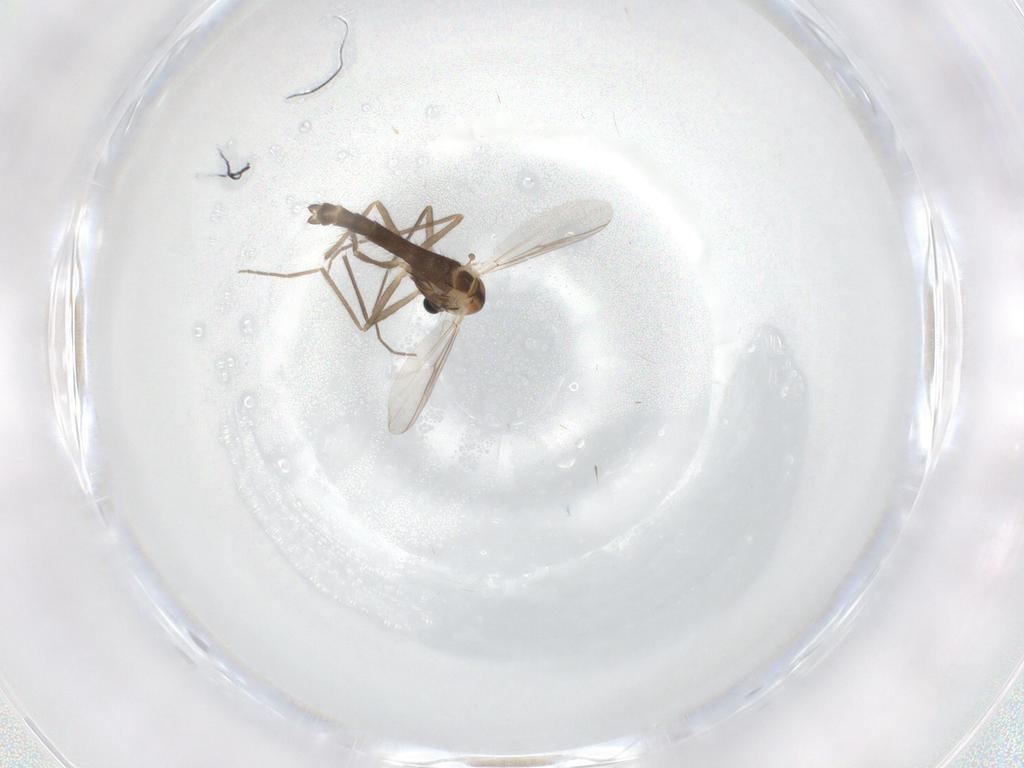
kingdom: Animalia
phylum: Arthropoda
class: Insecta
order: Diptera
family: Chironomidae
